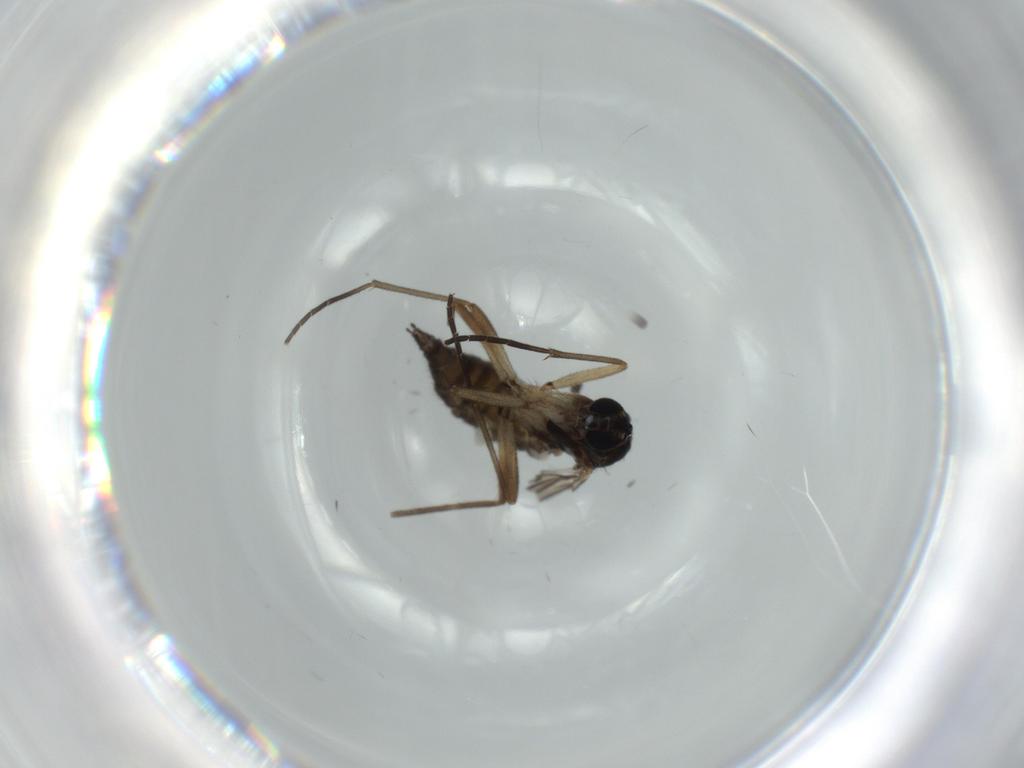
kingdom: Animalia
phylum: Arthropoda
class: Insecta
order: Diptera
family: Sciaridae
